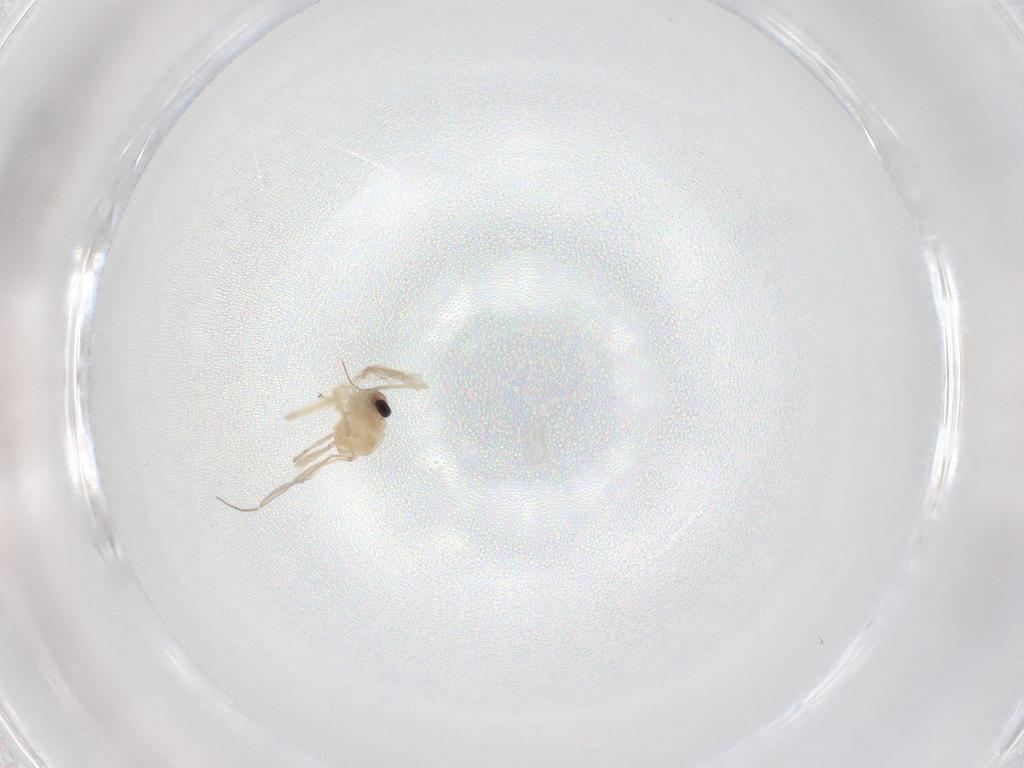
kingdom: Animalia
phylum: Arthropoda
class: Insecta
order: Diptera
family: Chironomidae
